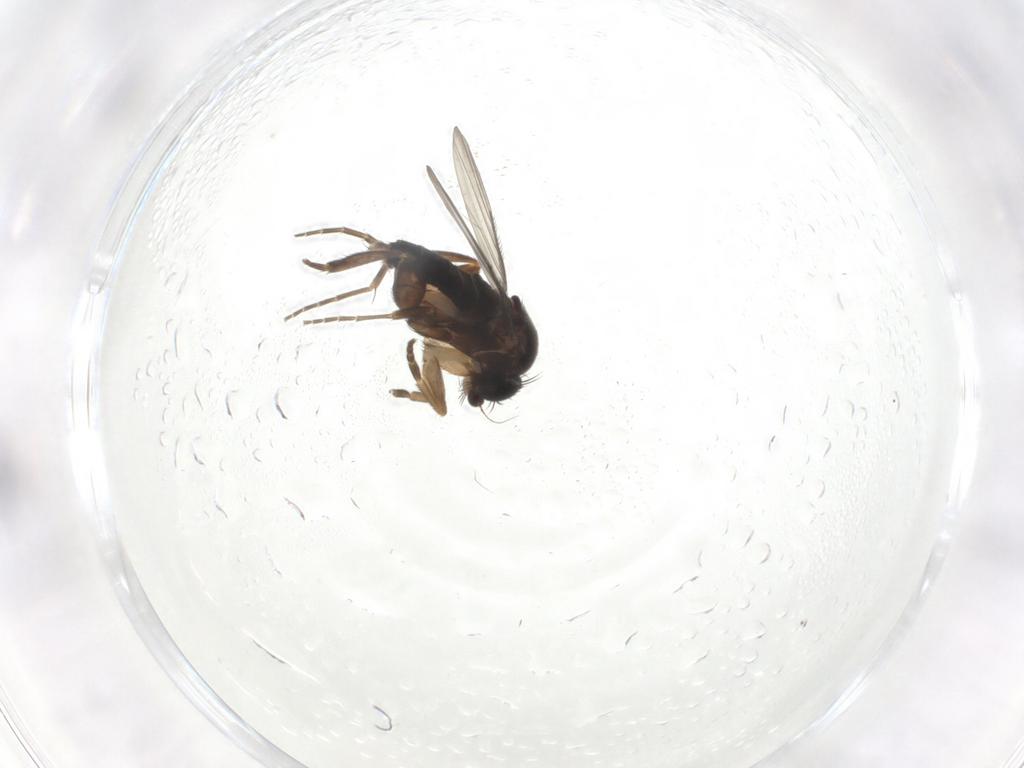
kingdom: Animalia
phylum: Arthropoda
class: Insecta
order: Diptera
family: Phoridae
